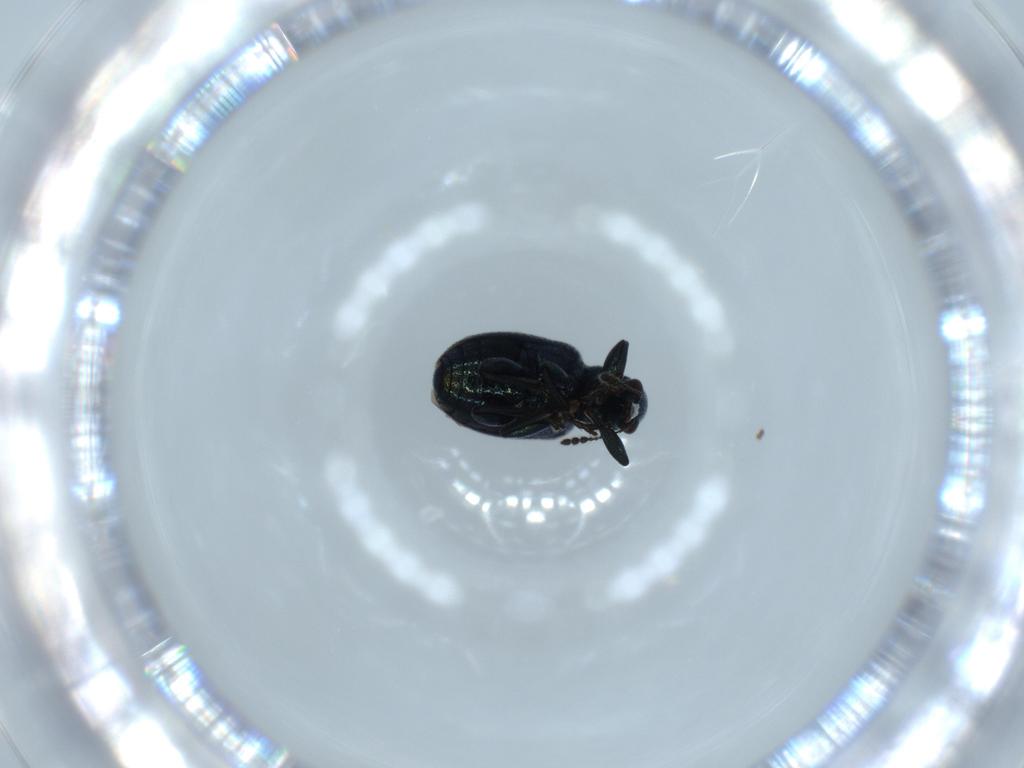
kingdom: Animalia
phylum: Arthropoda
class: Insecta
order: Coleoptera
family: Attelabidae
